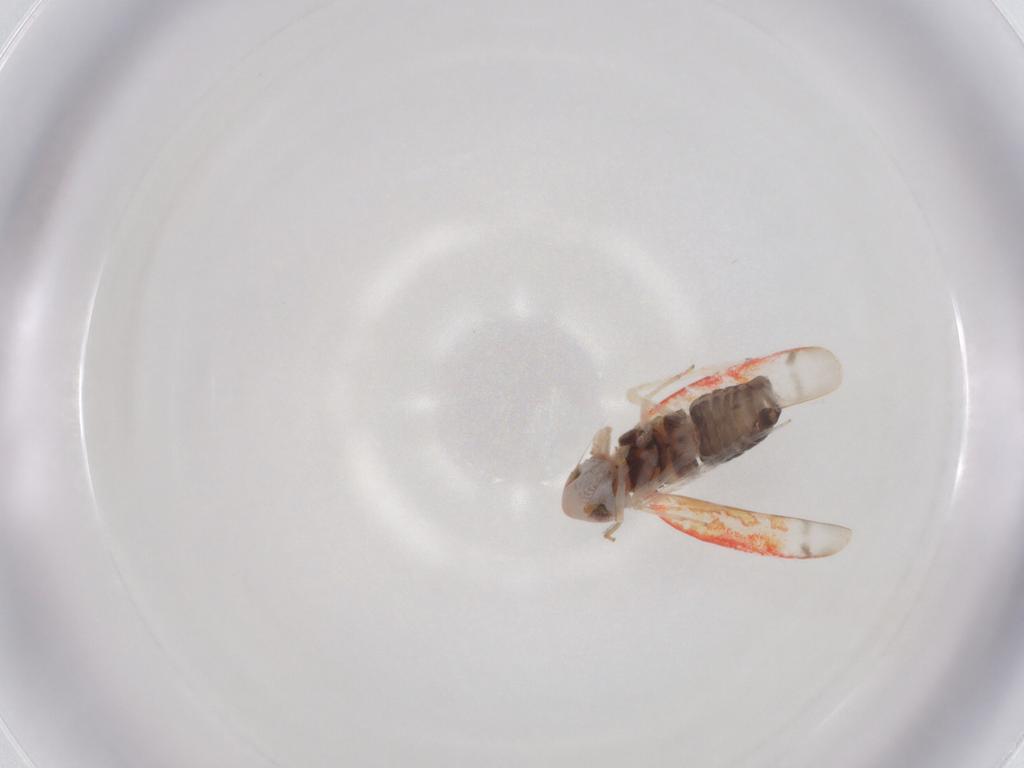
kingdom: Animalia
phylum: Arthropoda
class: Insecta
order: Hemiptera
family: Cicadellidae
